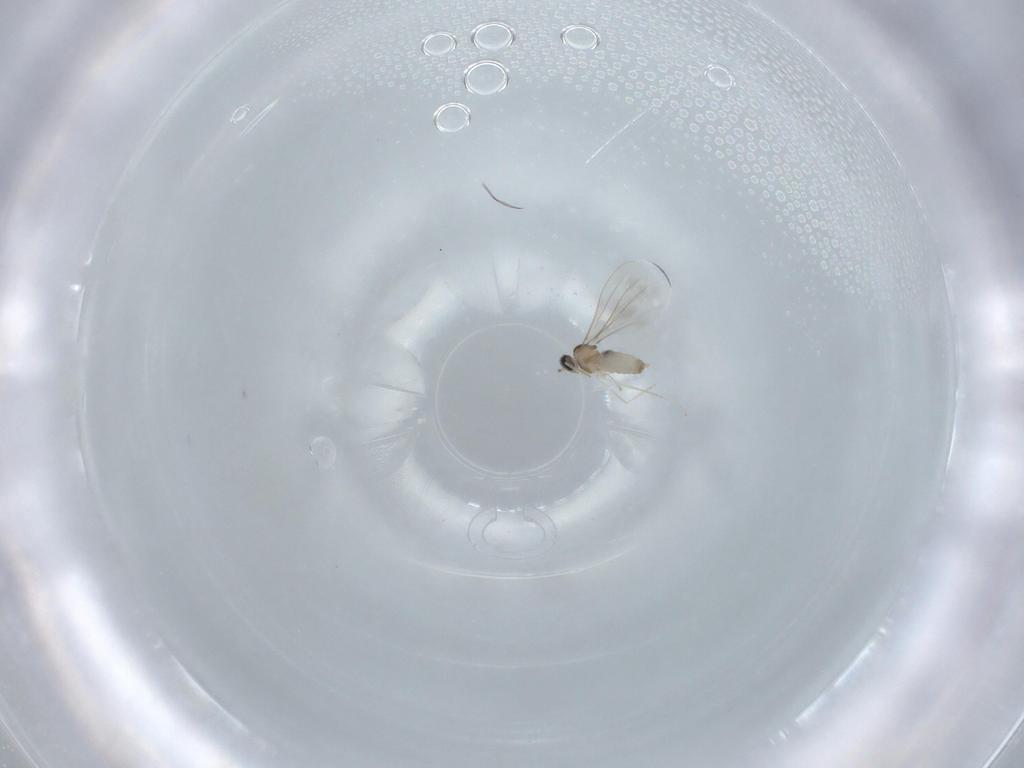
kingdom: Animalia
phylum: Arthropoda
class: Insecta
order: Diptera
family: Cecidomyiidae
